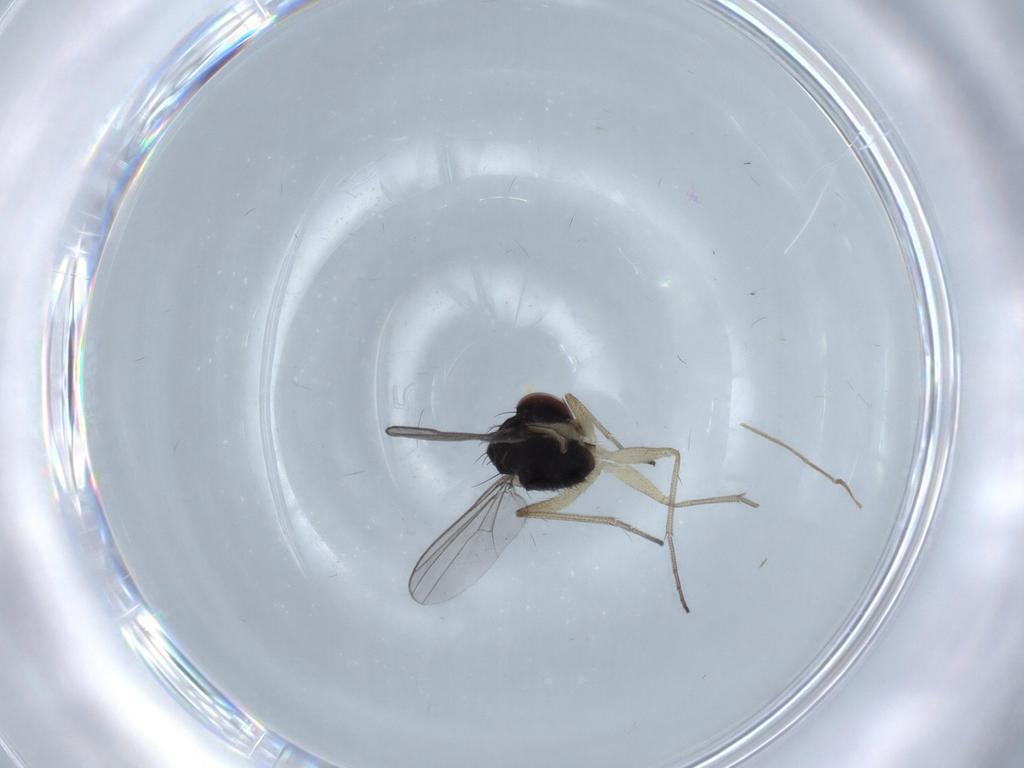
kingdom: Animalia
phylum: Arthropoda
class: Insecta
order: Diptera
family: Dolichopodidae
